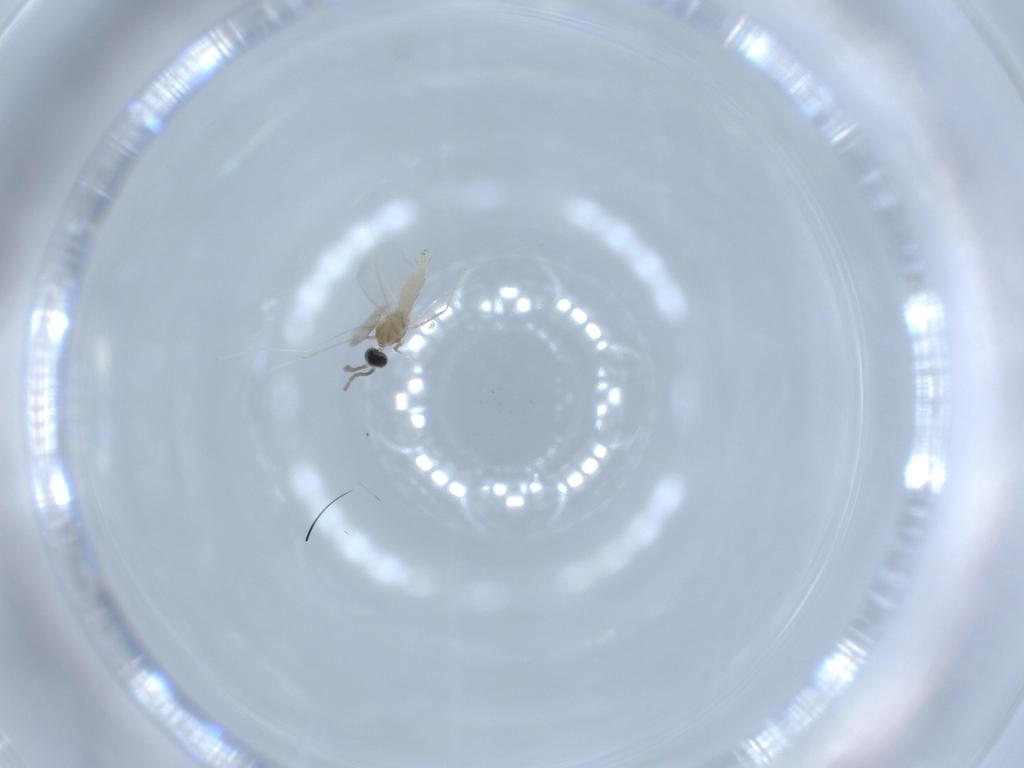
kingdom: Animalia
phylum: Arthropoda
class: Insecta
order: Diptera
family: Cecidomyiidae
